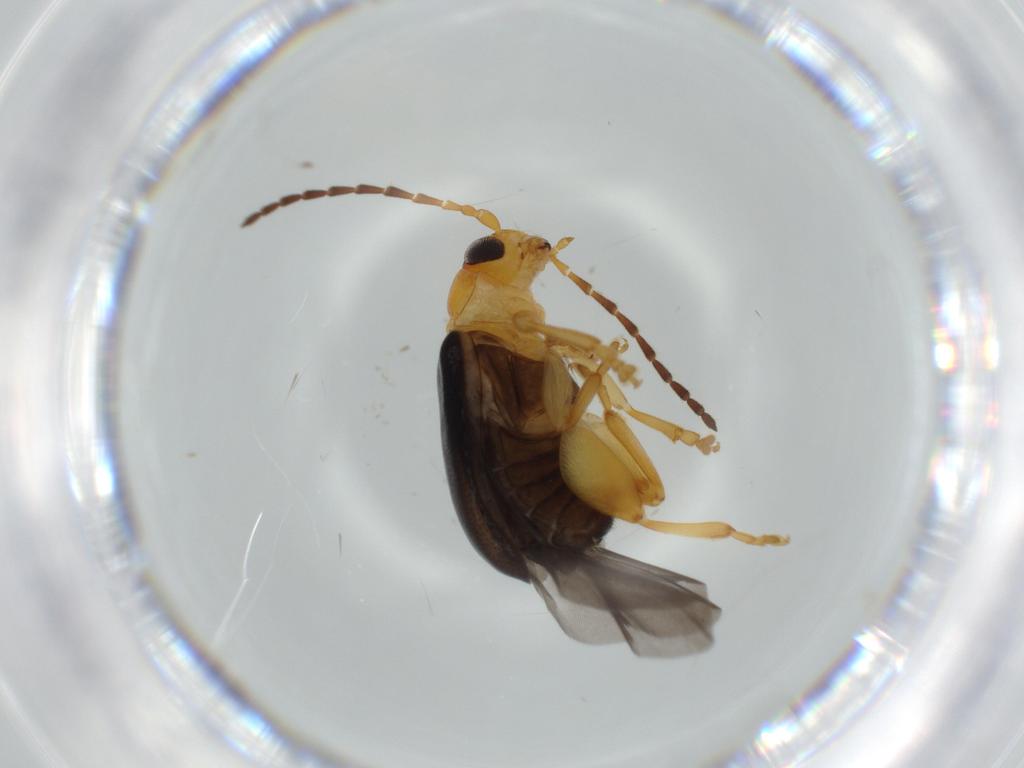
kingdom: Animalia
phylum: Arthropoda
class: Insecta
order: Coleoptera
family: Chrysomelidae
